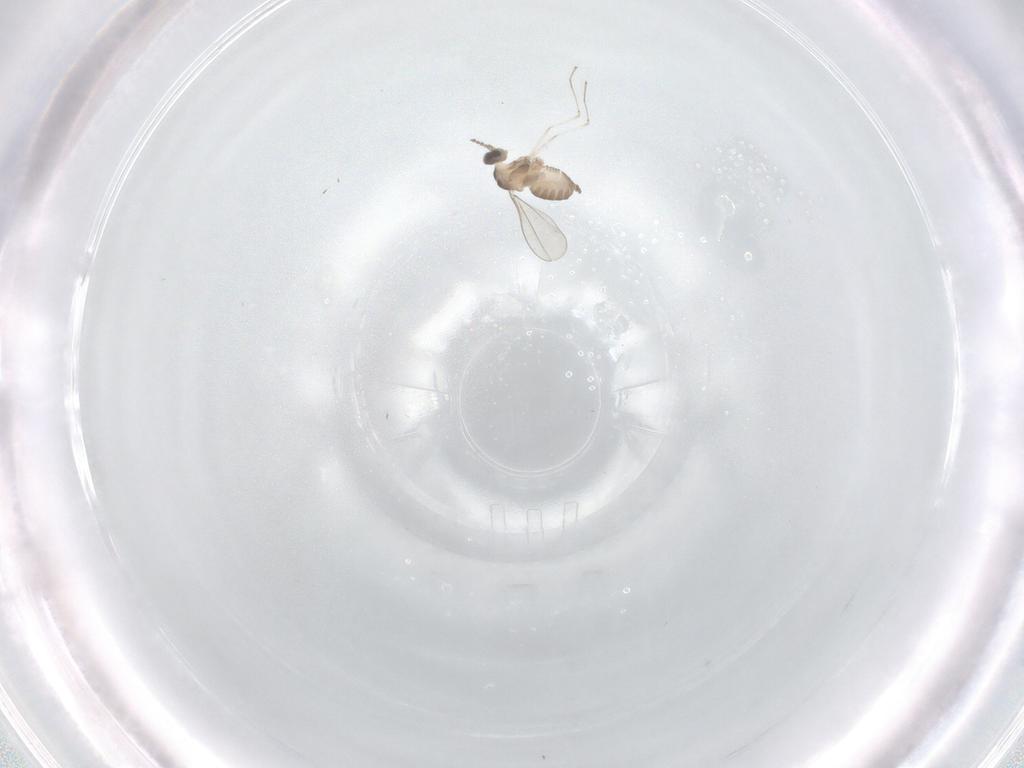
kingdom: Animalia
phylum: Arthropoda
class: Insecta
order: Diptera
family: Cecidomyiidae
